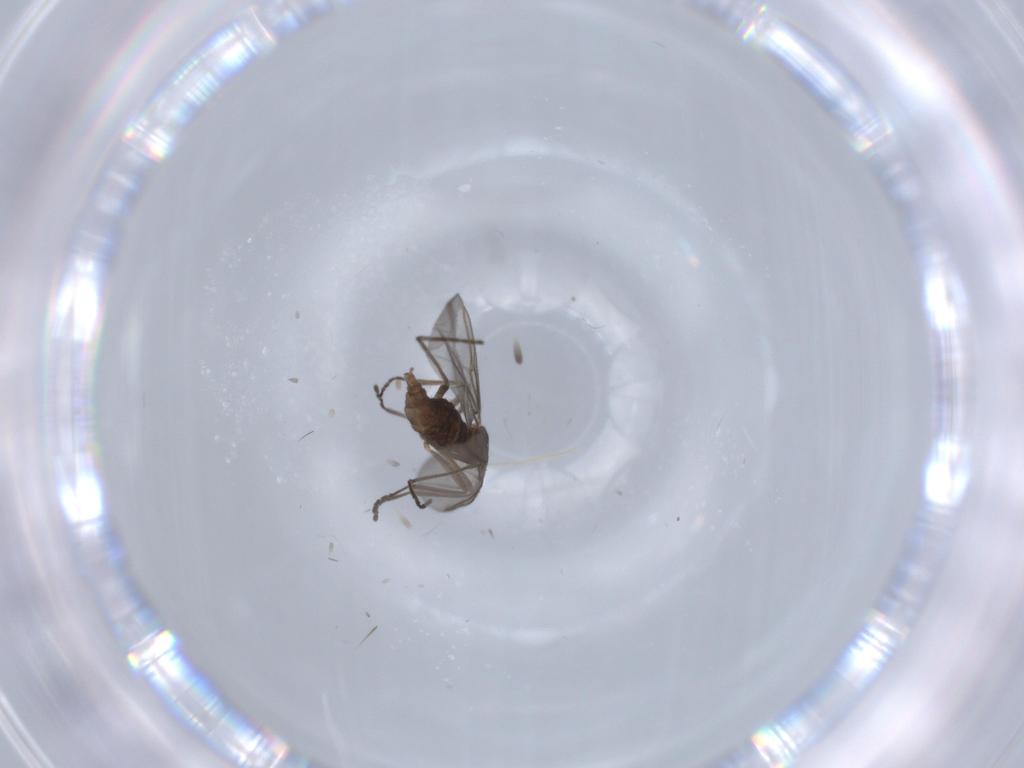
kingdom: Animalia
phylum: Arthropoda
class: Insecta
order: Diptera
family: Cecidomyiidae
